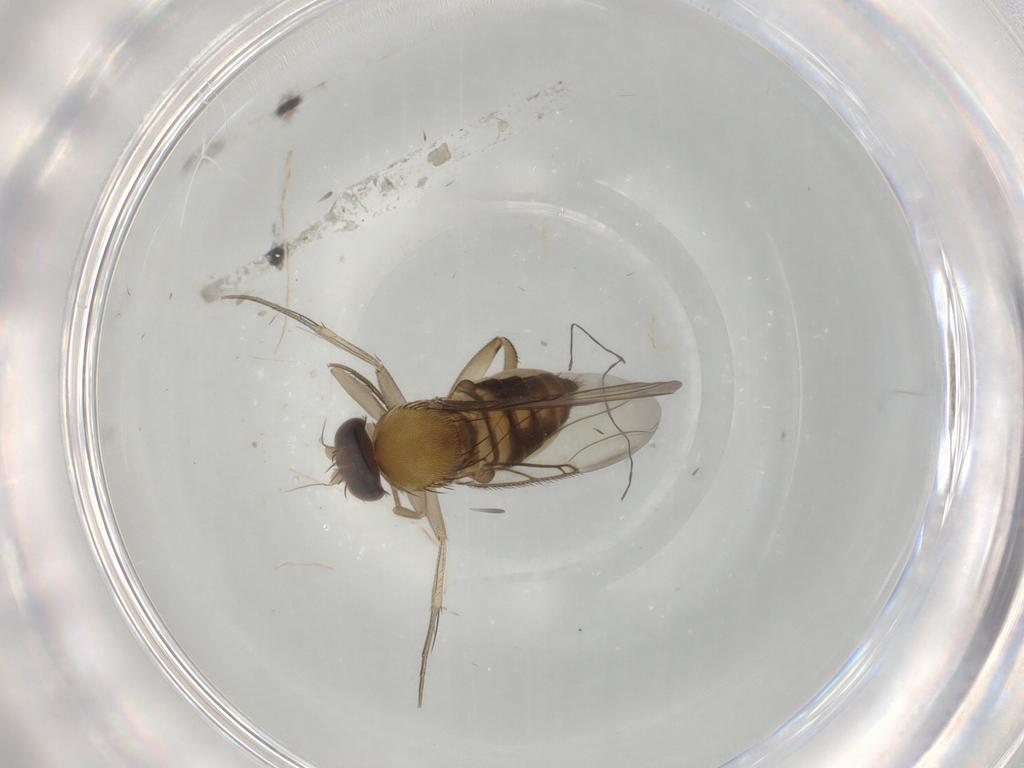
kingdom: Animalia
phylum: Arthropoda
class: Insecta
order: Diptera
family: Phoridae
